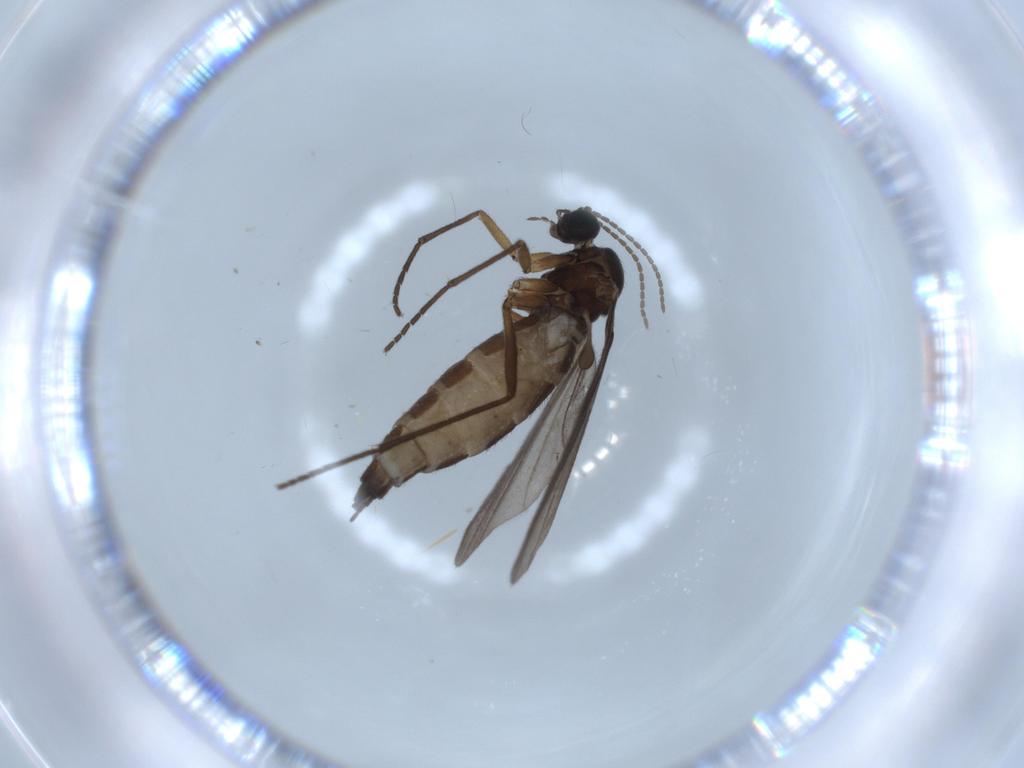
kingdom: Animalia
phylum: Arthropoda
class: Insecta
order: Diptera
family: Sciaridae
